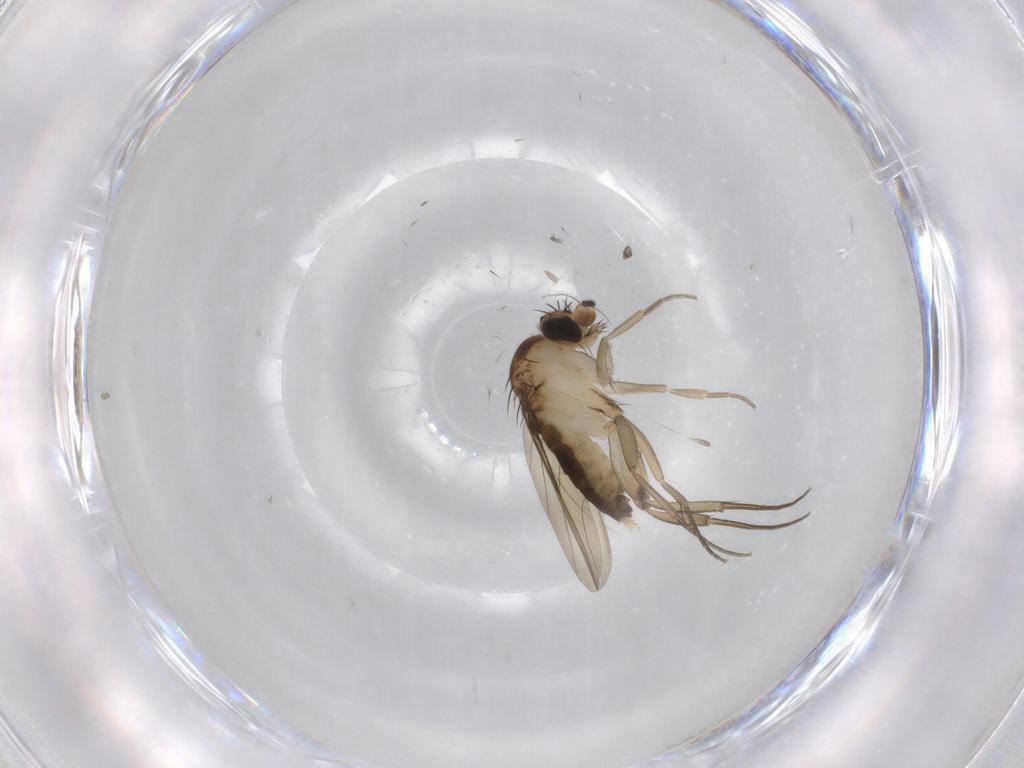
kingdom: Animalia
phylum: Arthropoda
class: Insecta
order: Diptera
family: Phoridae
